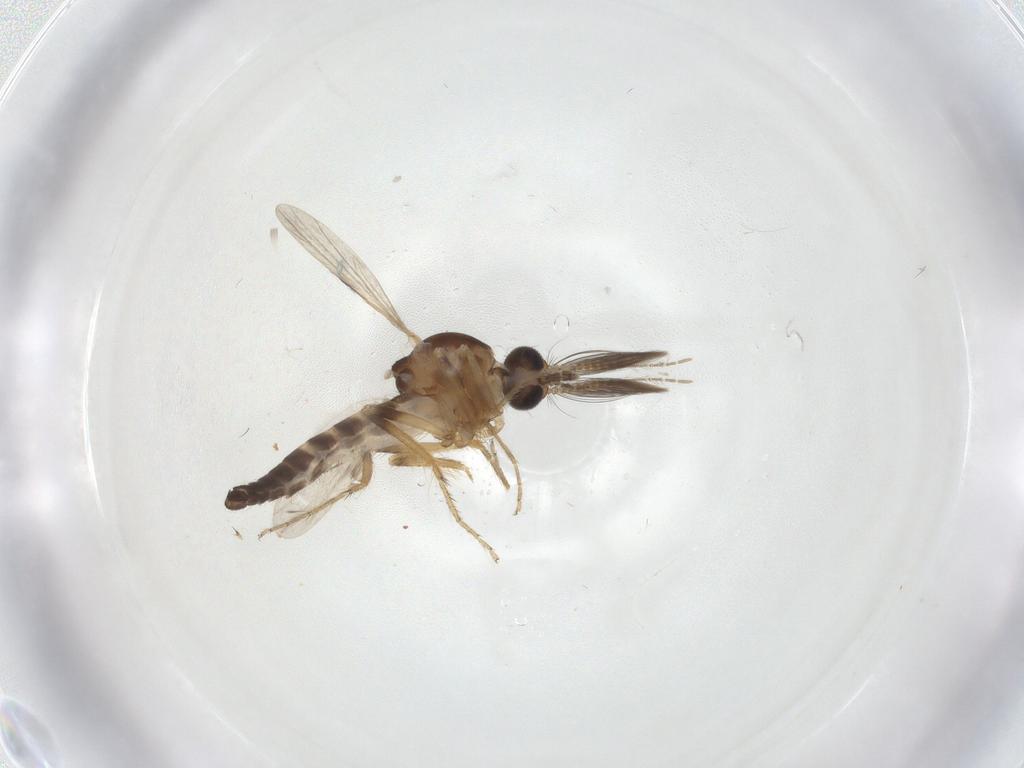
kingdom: Animalia
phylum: Arthropoda
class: Insecta
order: Diptera
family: Ceratopogonidae
